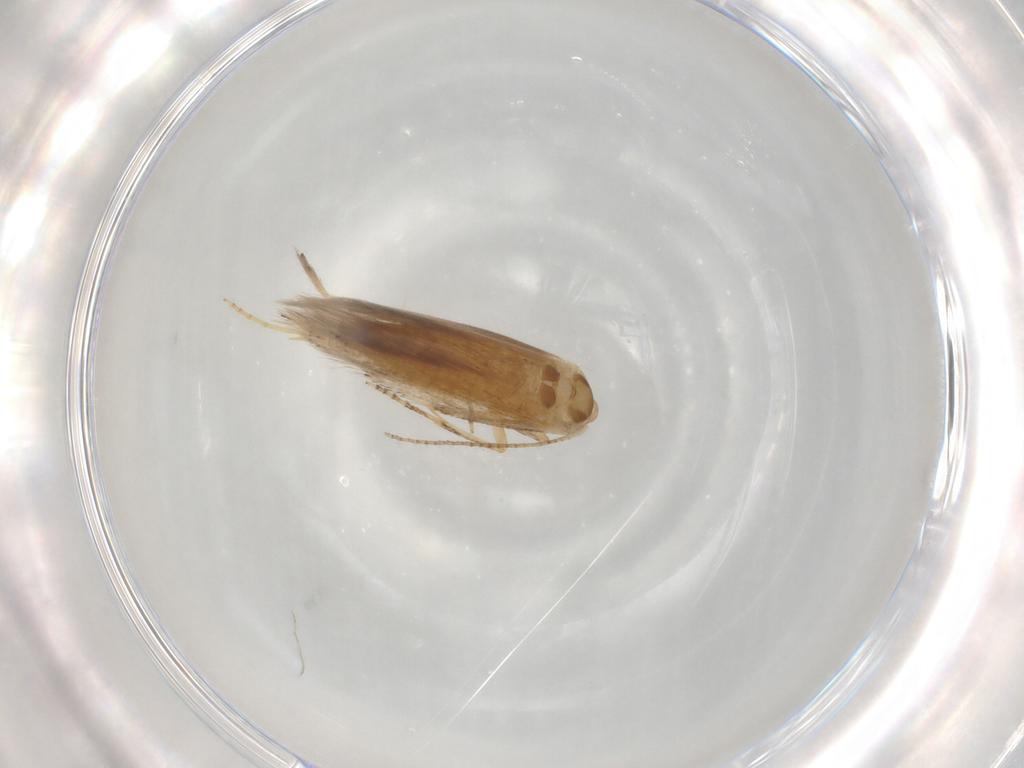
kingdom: Animalia
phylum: Arthropoda
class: Insecta
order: Lepidoptera
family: Bucculatricidae
